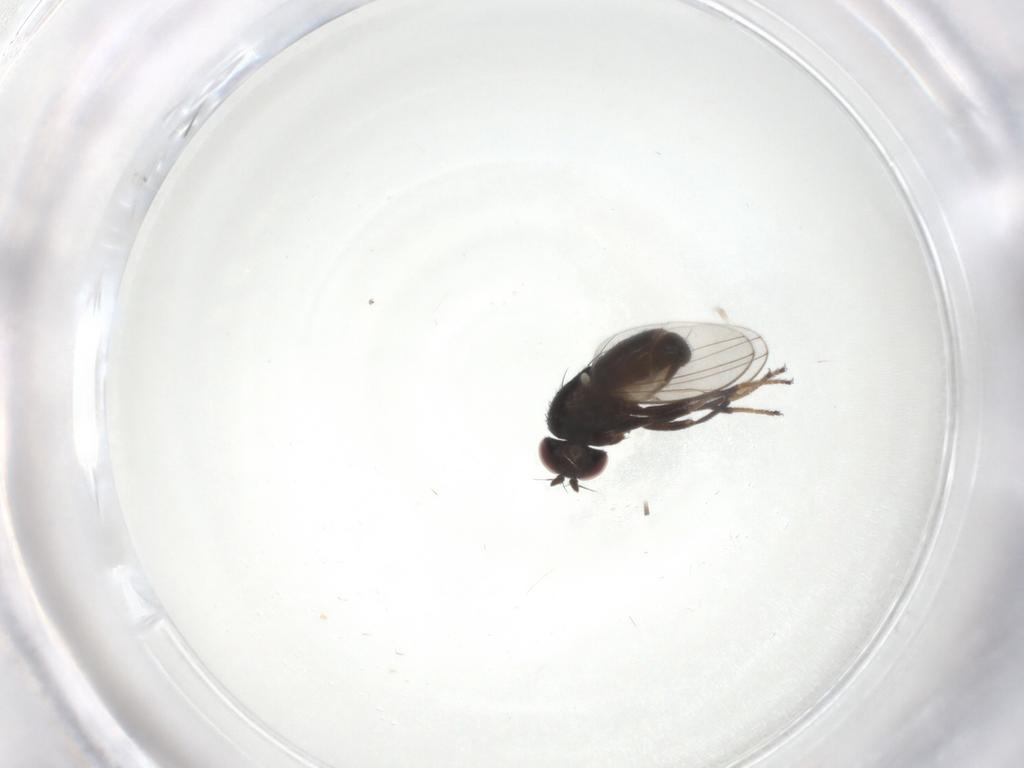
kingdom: Animalia
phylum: Arthropoda
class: Insecta
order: Diptera
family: Ephydridae
